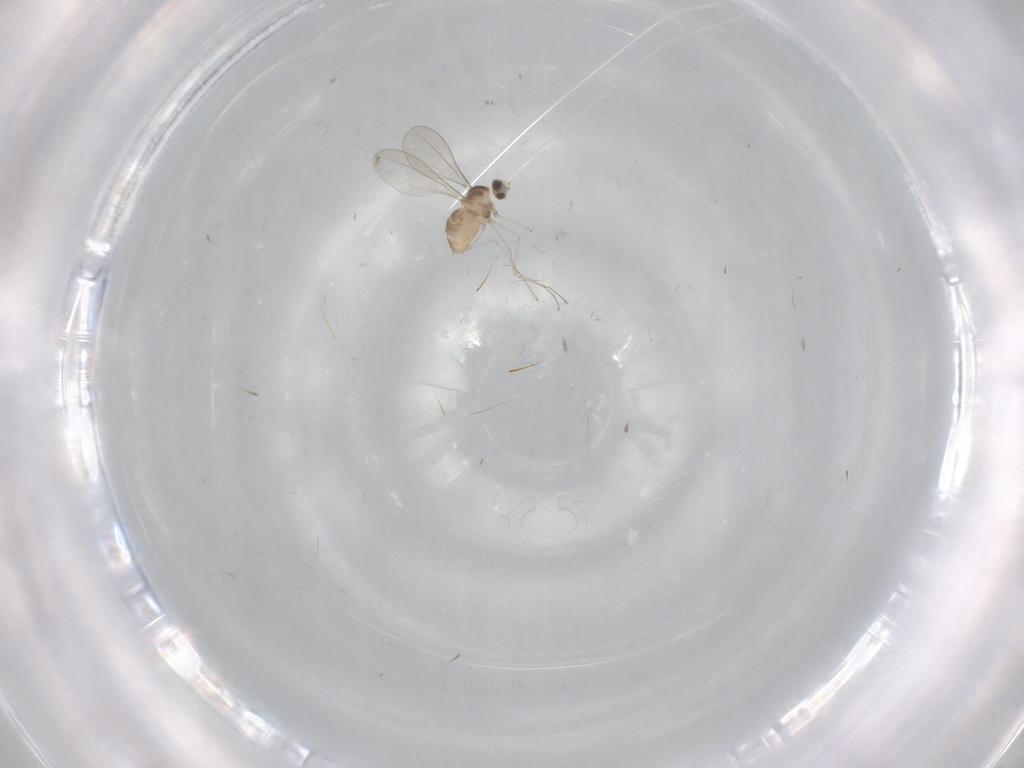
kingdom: Animalia
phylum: Arthropoda
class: Insecta
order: Diptera
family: Cecidomyiidae
